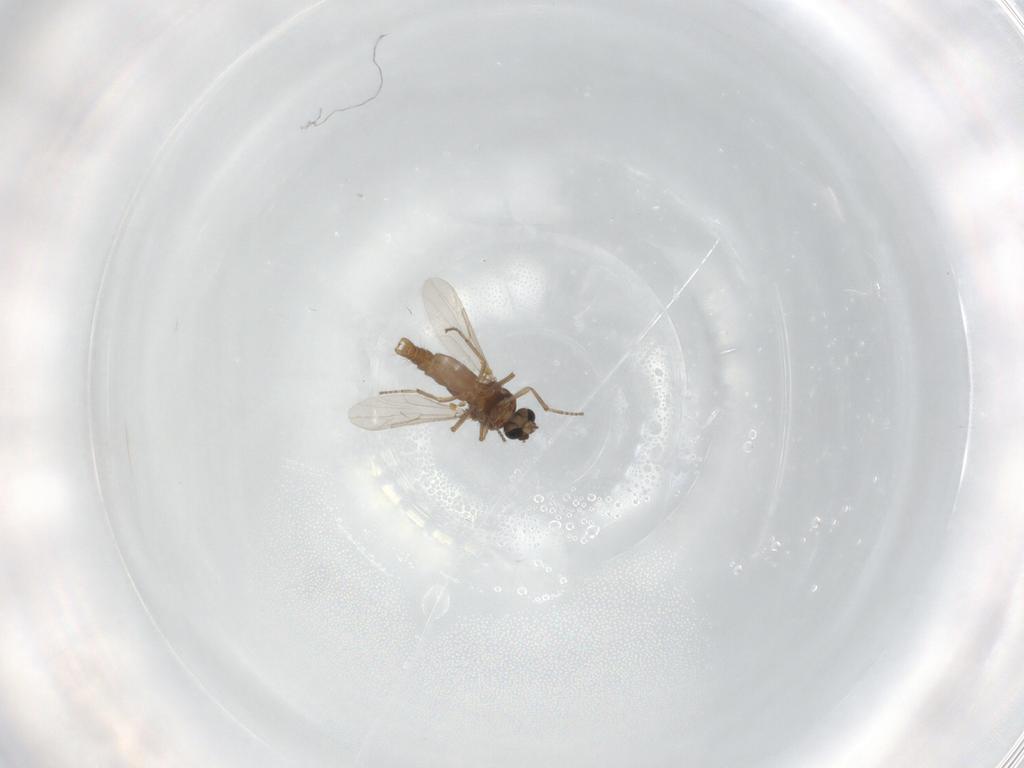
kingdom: Animalia
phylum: Arthropoda
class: Insecta
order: Diptera
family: Ceratopogonidae
